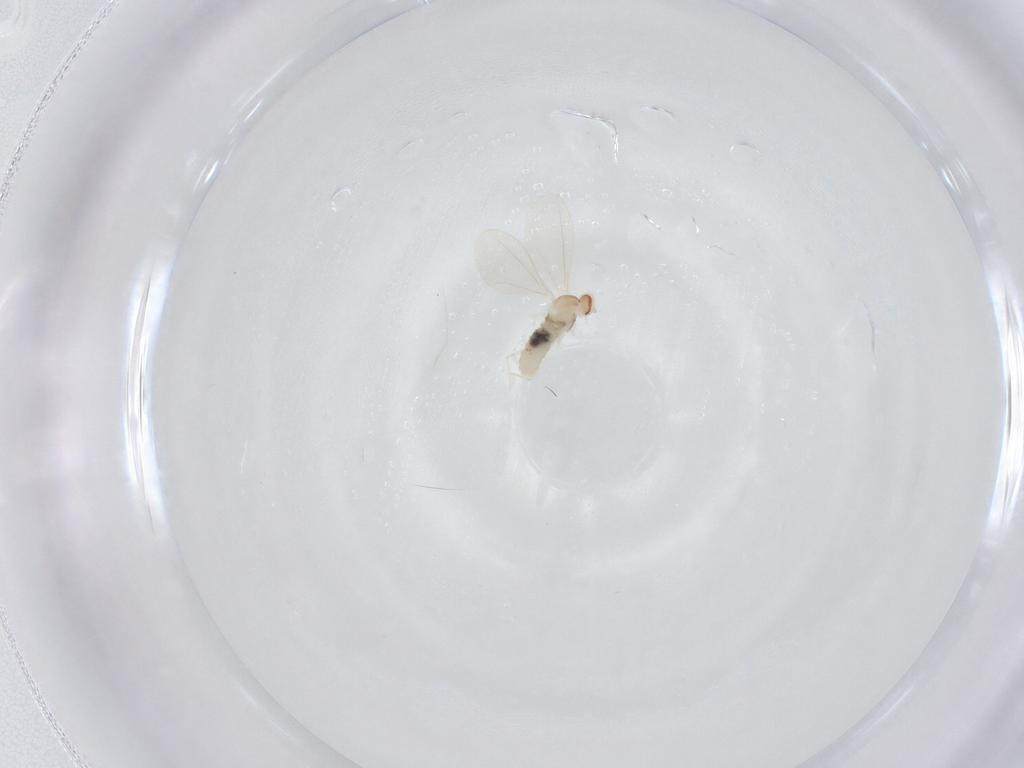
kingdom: Animalia
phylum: Arthropoda
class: Insecta
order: Diptera
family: Cecidomyiidae
